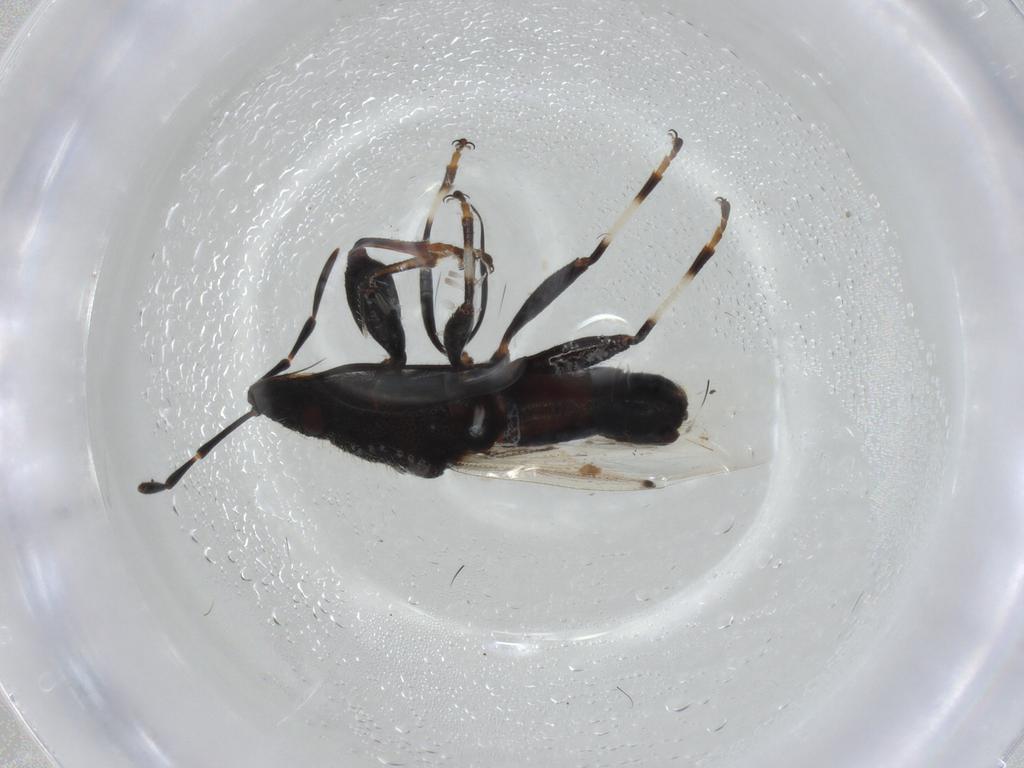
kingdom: Animalia
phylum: Arthropoda
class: Insecta
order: Hemiptera
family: Oxycarenidae
